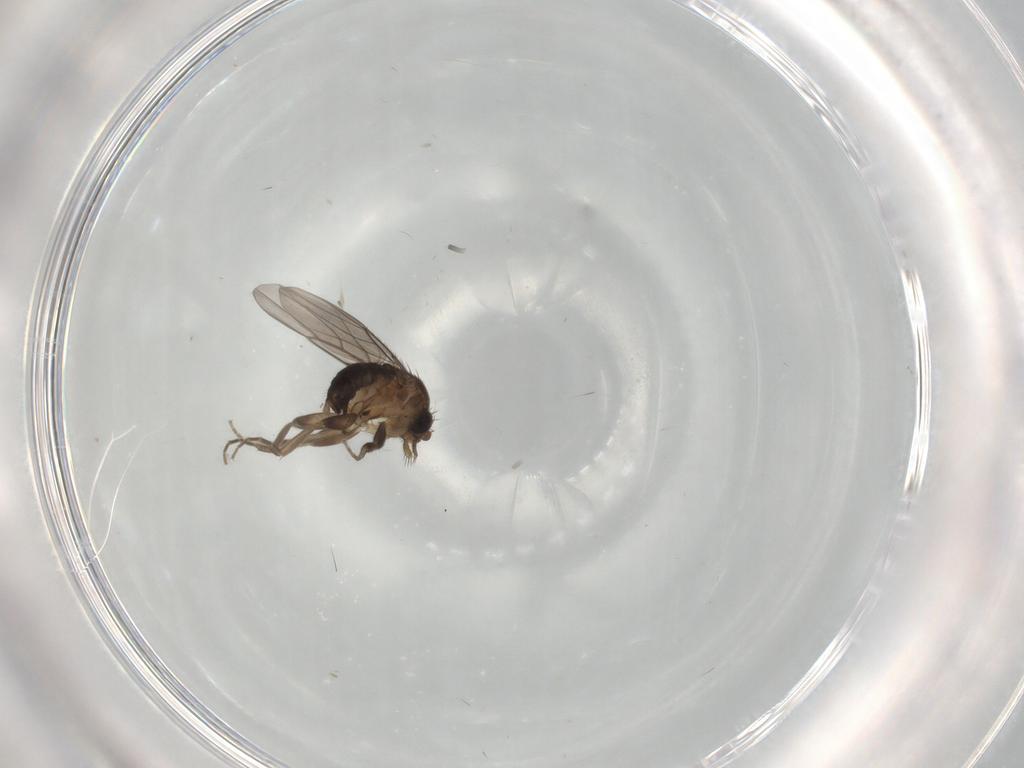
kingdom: Animalia
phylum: Arthropoda
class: Insecta
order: Diptera
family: Phoridae
